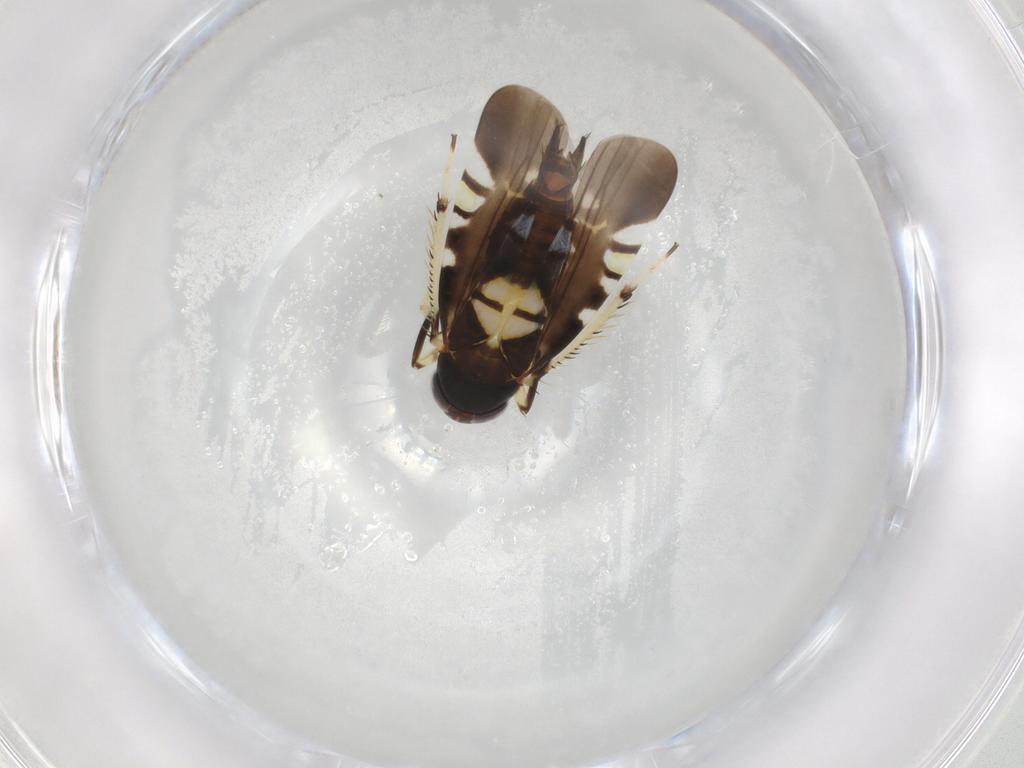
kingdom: Animalia
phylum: Arthropoda
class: Insecta
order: Hemiptera
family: Cicadellidae
